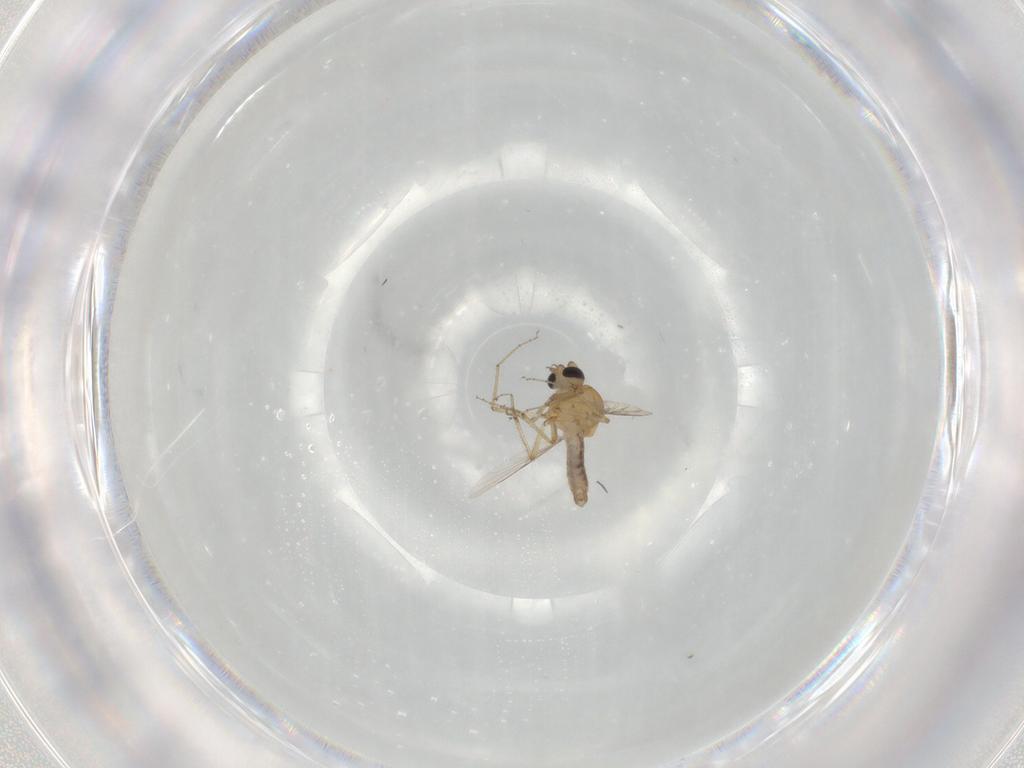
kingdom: Animalia
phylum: Arthropoda
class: Insecta
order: Diptera
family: Ceratopogonidae
